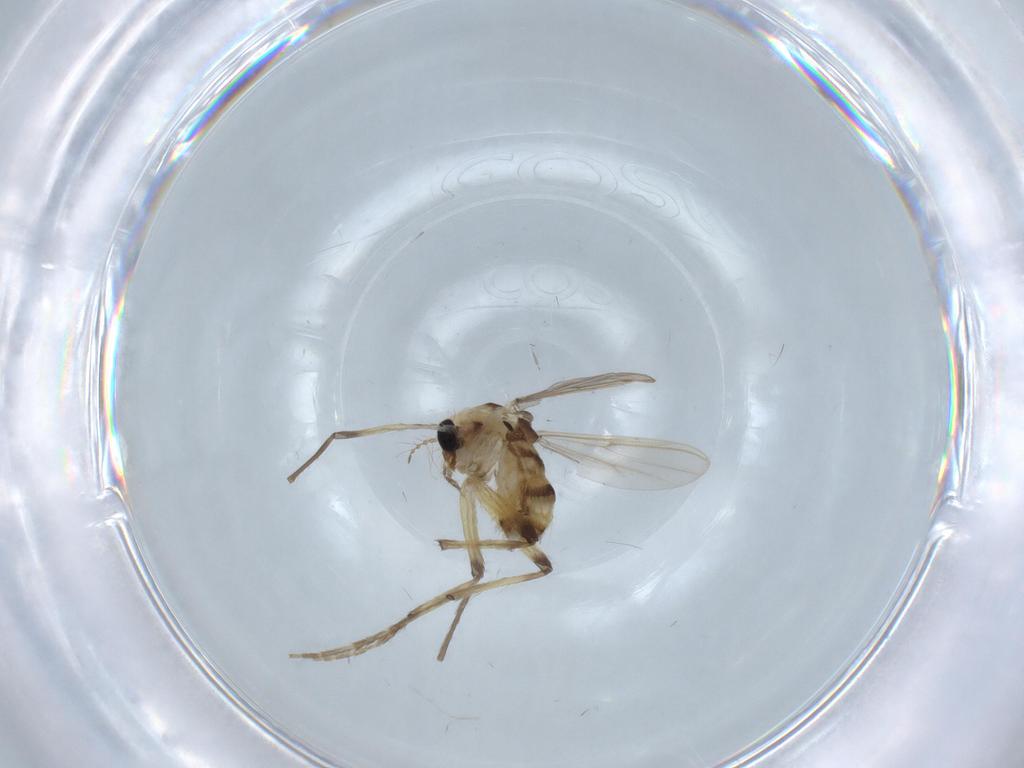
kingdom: Animalia
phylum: Arthropoda
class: Insecta
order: Diptera
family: Chironomidae
